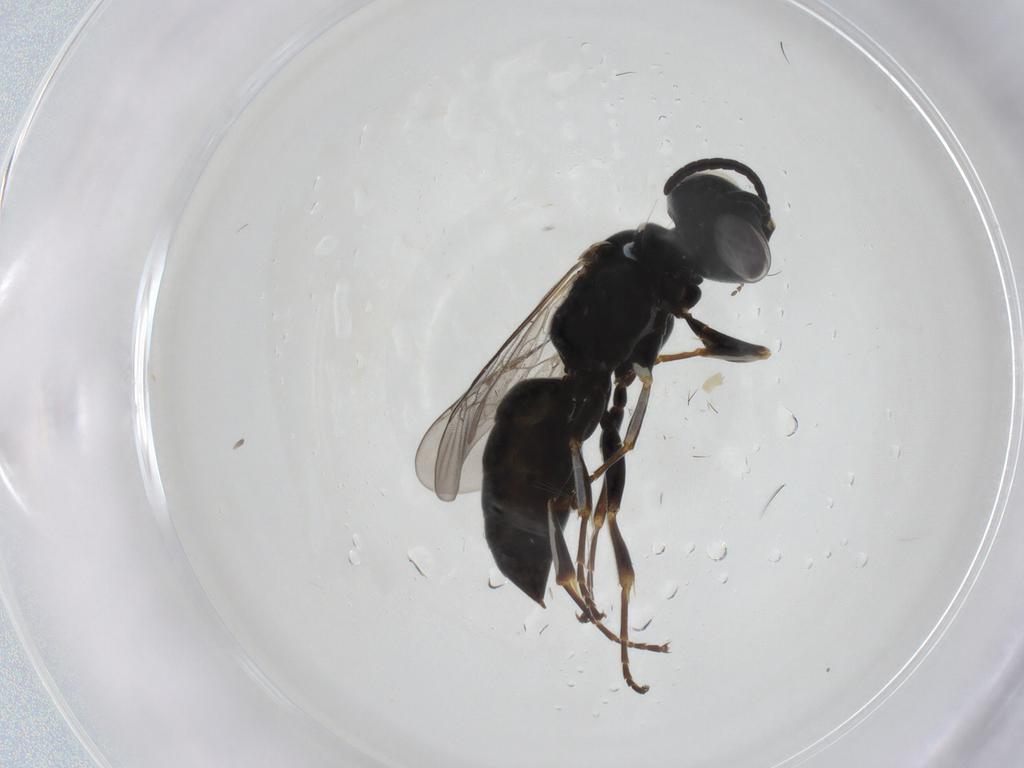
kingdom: Animalia
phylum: Arthropoda
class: Insecta
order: Hymenoptera
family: Crabronidae
